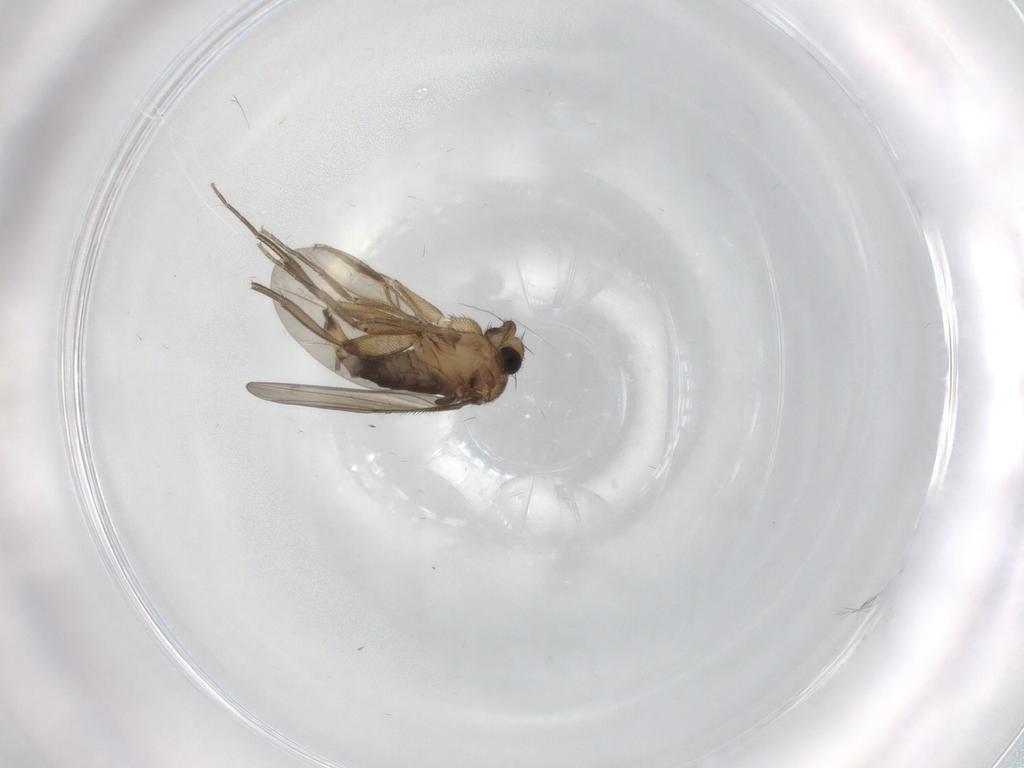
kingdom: Animalia
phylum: Arthropoda
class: Insecta
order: Diptera
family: Phoridae
